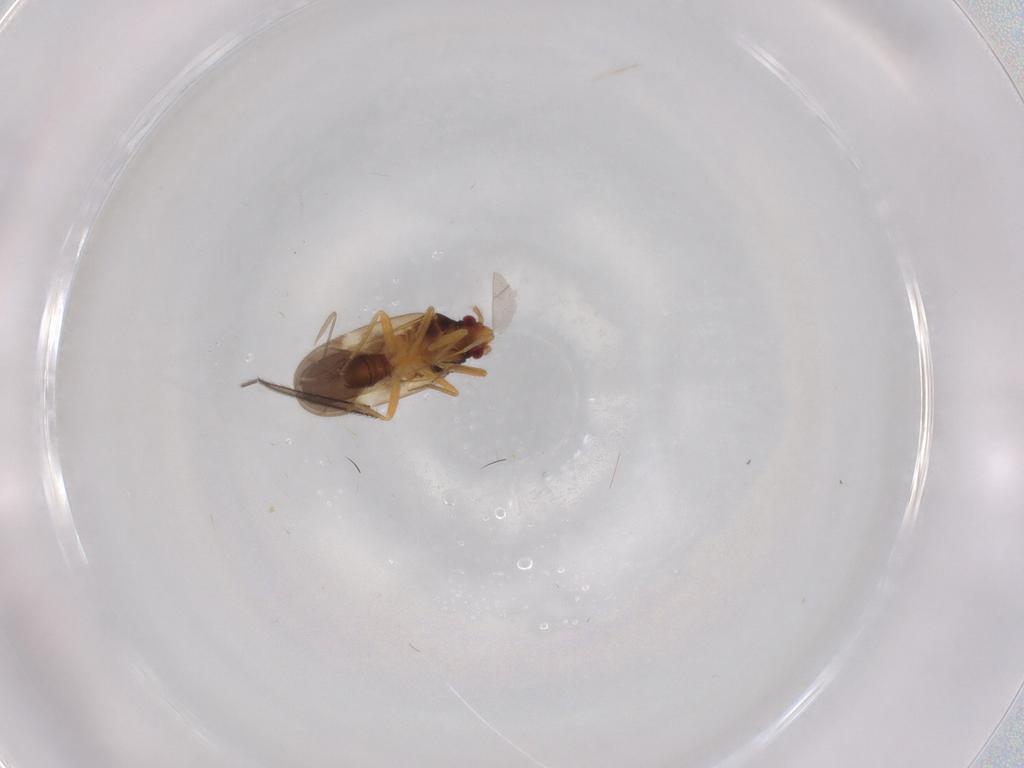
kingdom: Animalia
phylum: Arthropoda
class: Insecta
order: Hemiptera
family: Ceratocombidae
